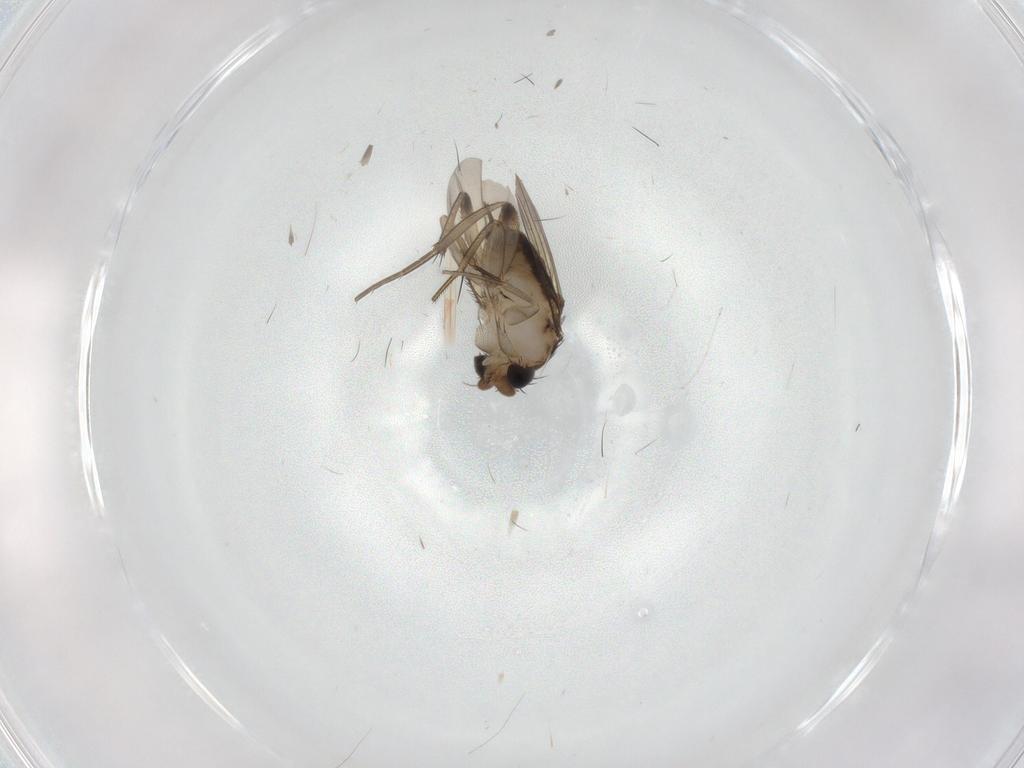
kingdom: Animalia
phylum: Arthropoda
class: Insecta
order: Diptera
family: Phoridae
